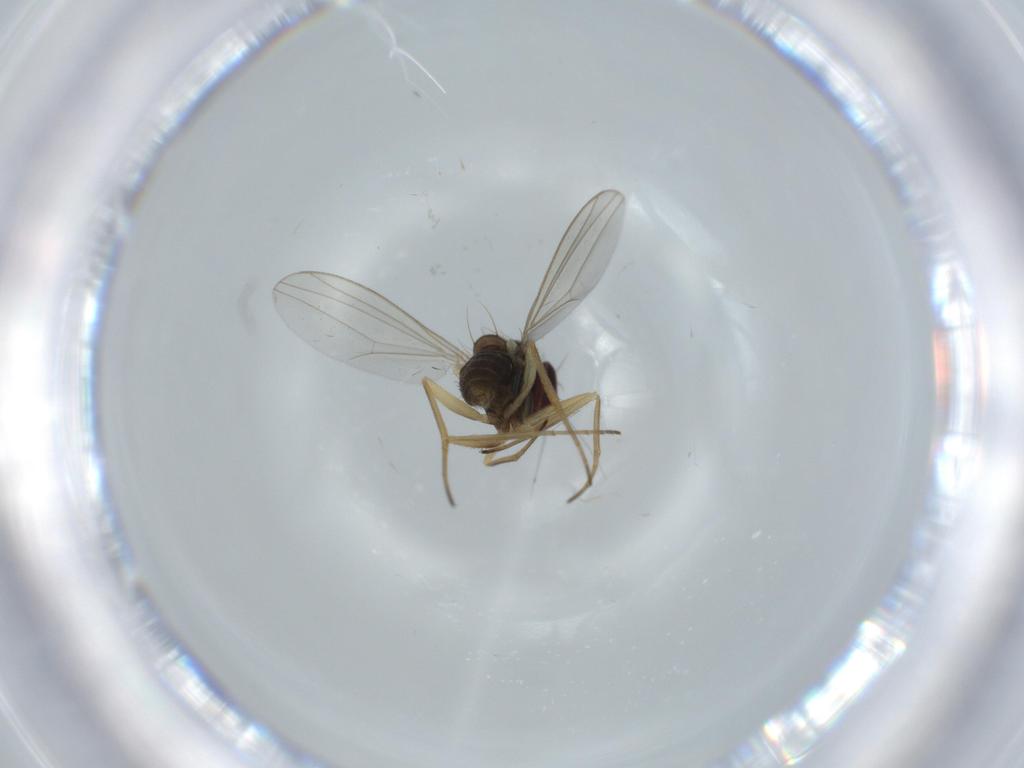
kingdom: Animalia
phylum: Arthropoda
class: Insecta
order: Diptera
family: Dolichopodidae
